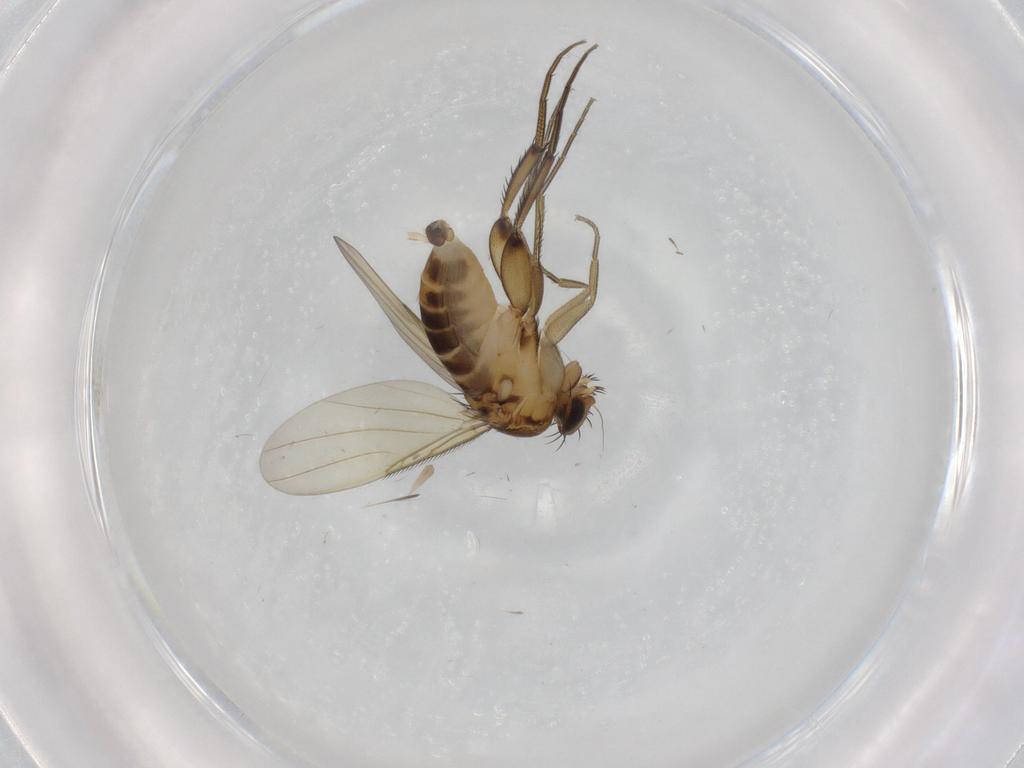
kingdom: Animalia
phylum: Arthropoda
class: Insecta
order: Diptera
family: Phoridae
